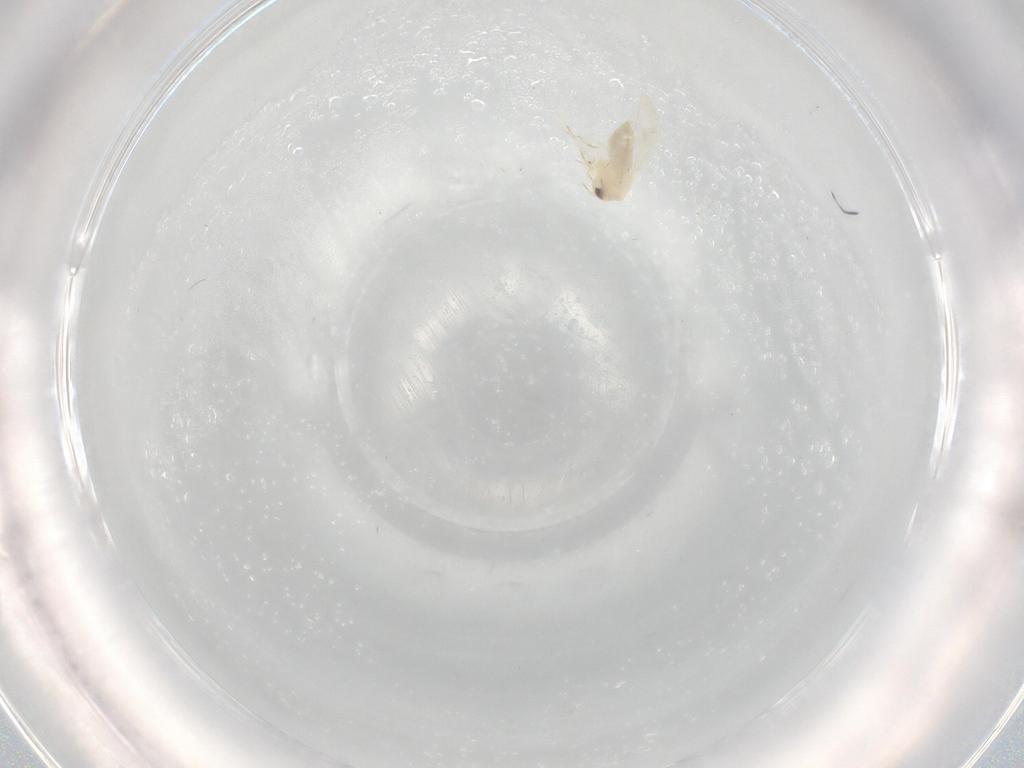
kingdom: Animalia
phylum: Arthropoda
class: Insecta
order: Hemiptera
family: Aleyrodidae
